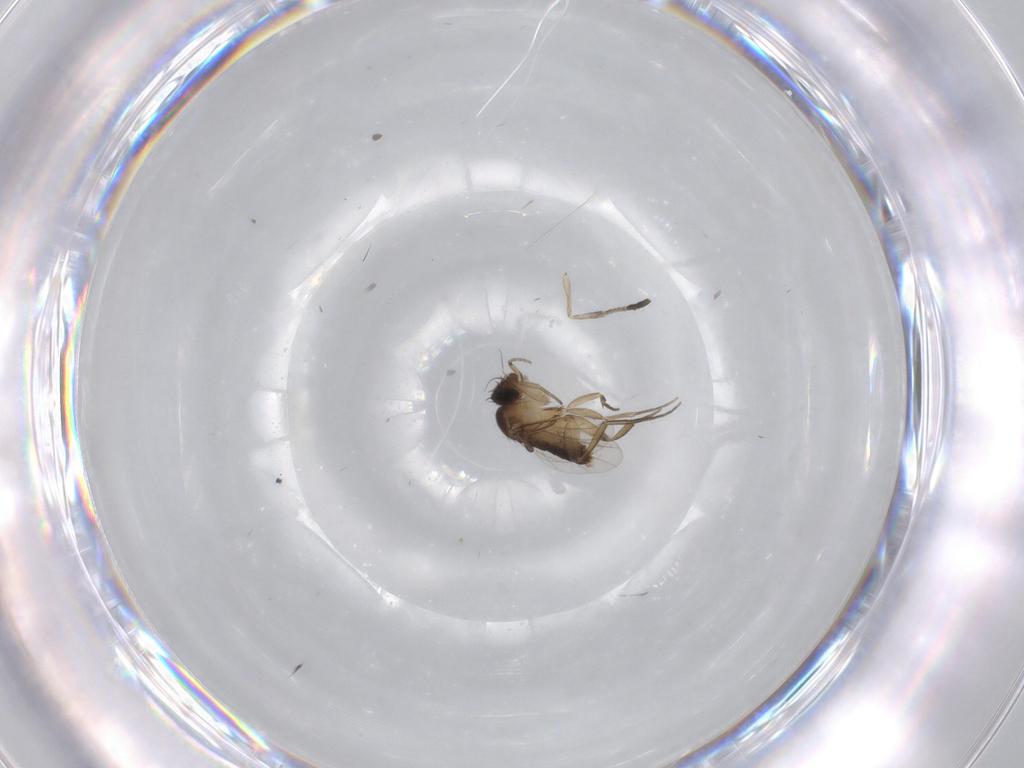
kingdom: Animalia
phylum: Arthropoda
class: Insecta
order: Diptera
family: Psychodidae
